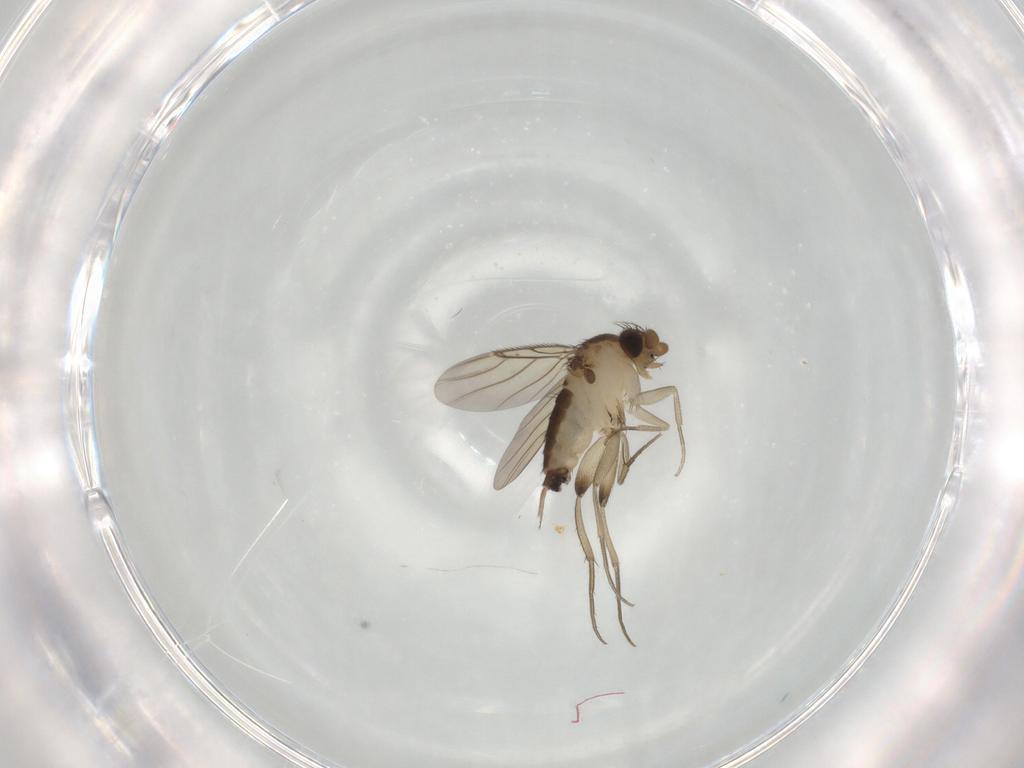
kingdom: Animalia
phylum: Arthropoda
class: Insecta
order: Diptera
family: Phoridae
